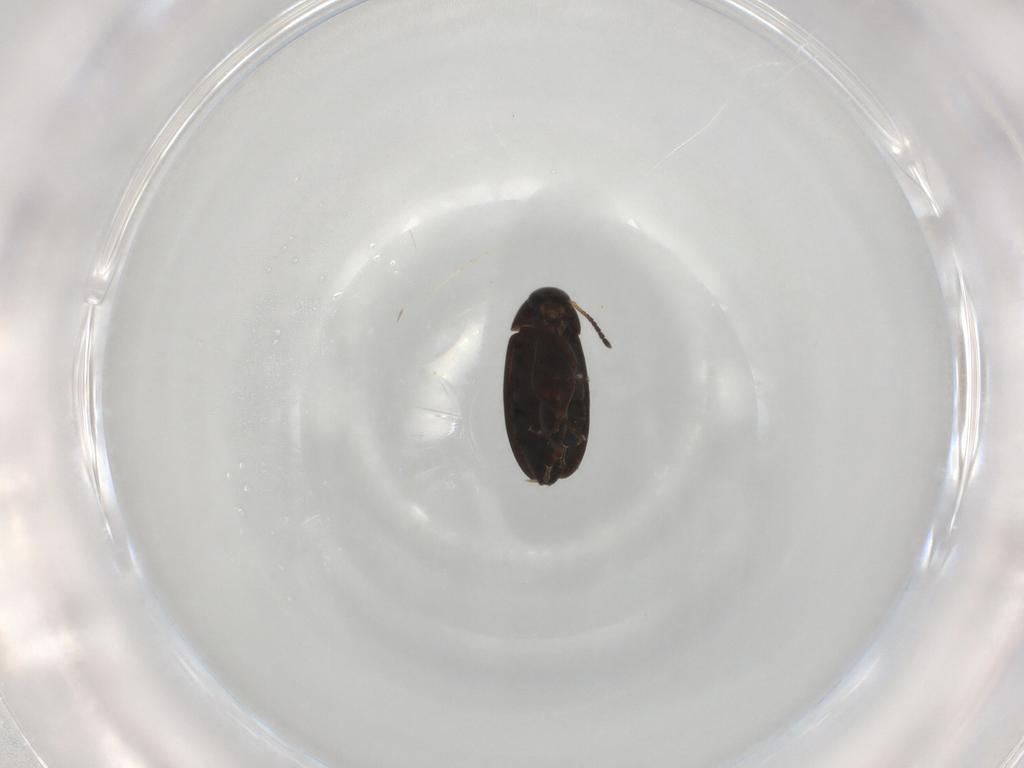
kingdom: Animalia
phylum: Arthropoda
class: Insecta
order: Coleoptera
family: Scraptiidae
